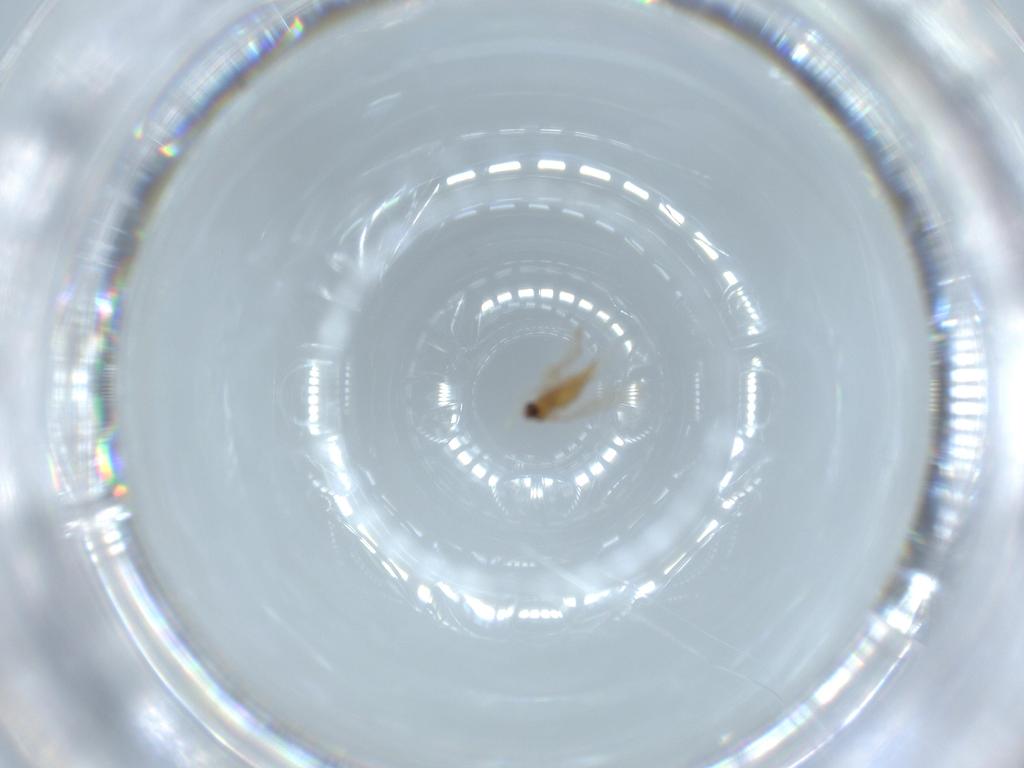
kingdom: Animalia
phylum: Arthropoda
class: Insecta
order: Diptera
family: Cecidomyiidae
